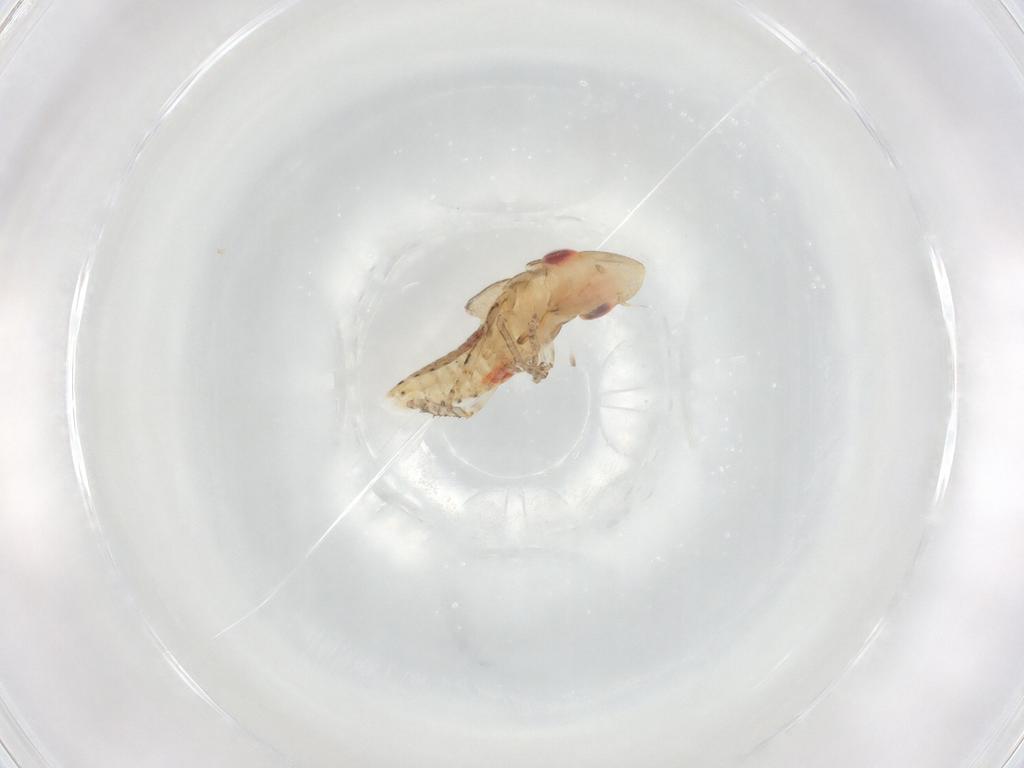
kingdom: Animalia
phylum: Arthropoda
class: Insecta
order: Hemiptera
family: Cicadellidae
